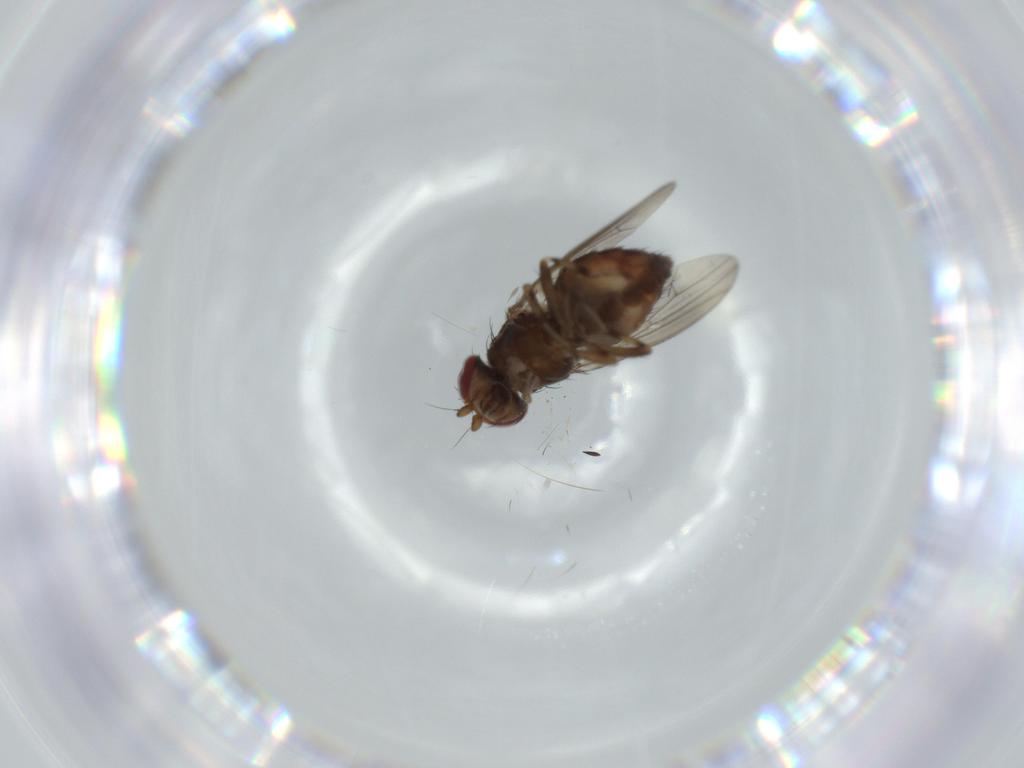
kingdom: Animalia
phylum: Arthropoda
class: Insecta
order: Diptera
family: Heleomyzidae
